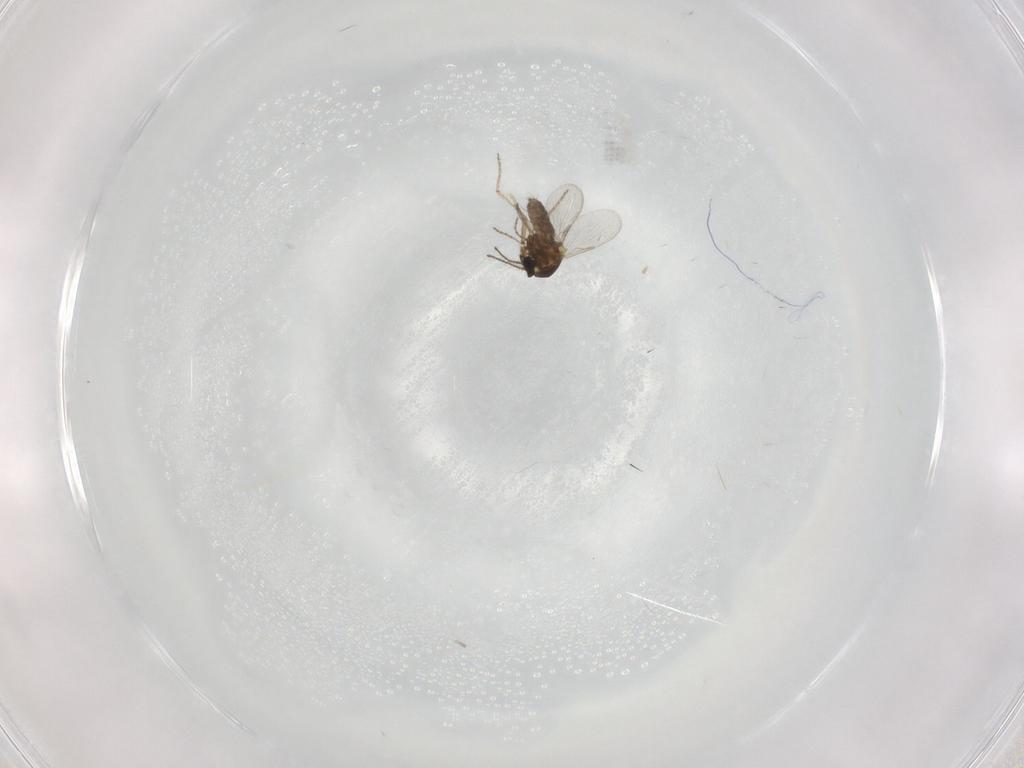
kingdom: Animalia
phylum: Arthropoda
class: Insecta
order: Diptera
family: Ceratopogonidae
